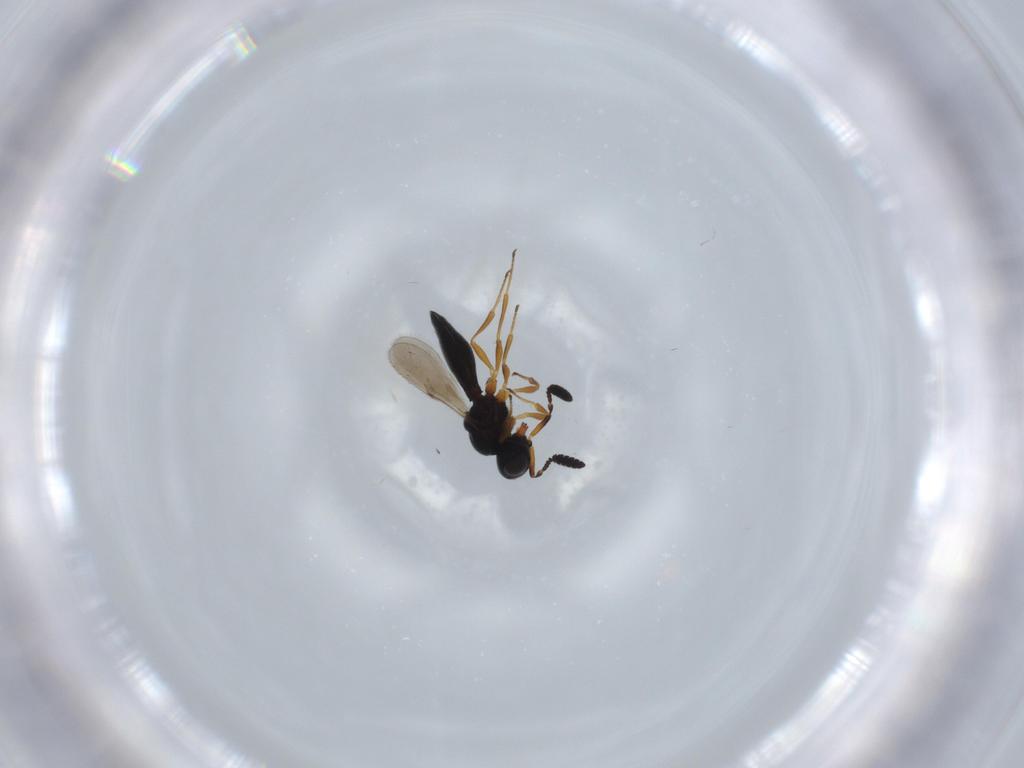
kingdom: Animalia
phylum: Arthropoda
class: Insecta
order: Hymenoptera
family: Scelionidae
